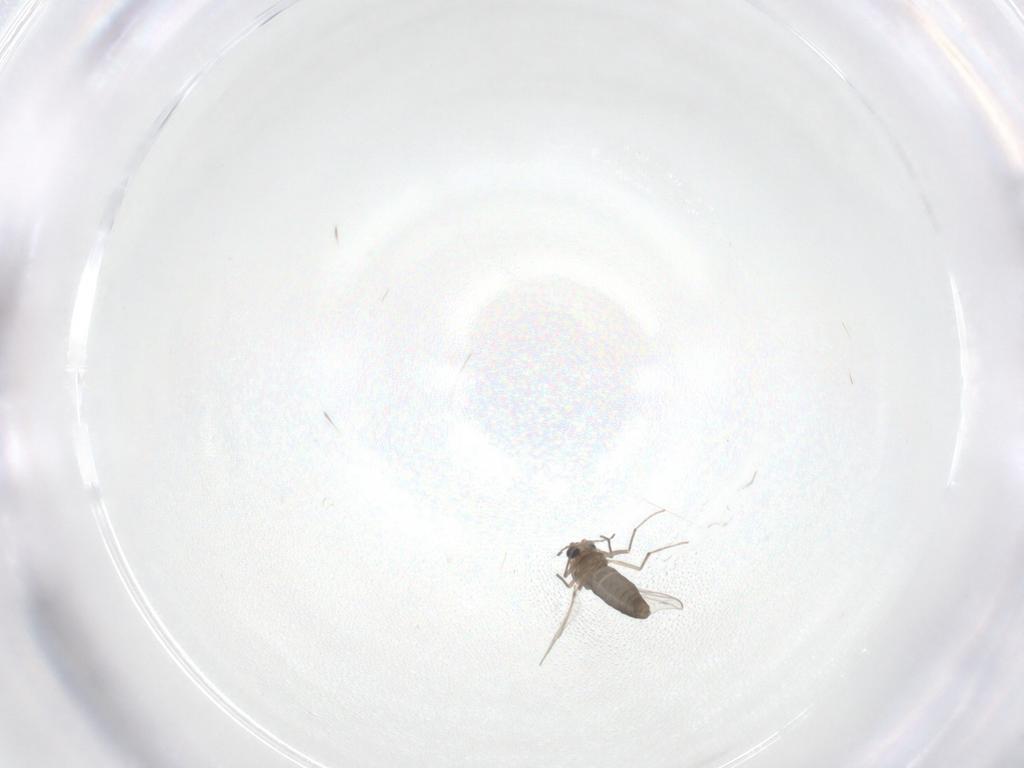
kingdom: Animalia
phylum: Arthropoda
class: Insecta
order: Diptera
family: Chironomidae
